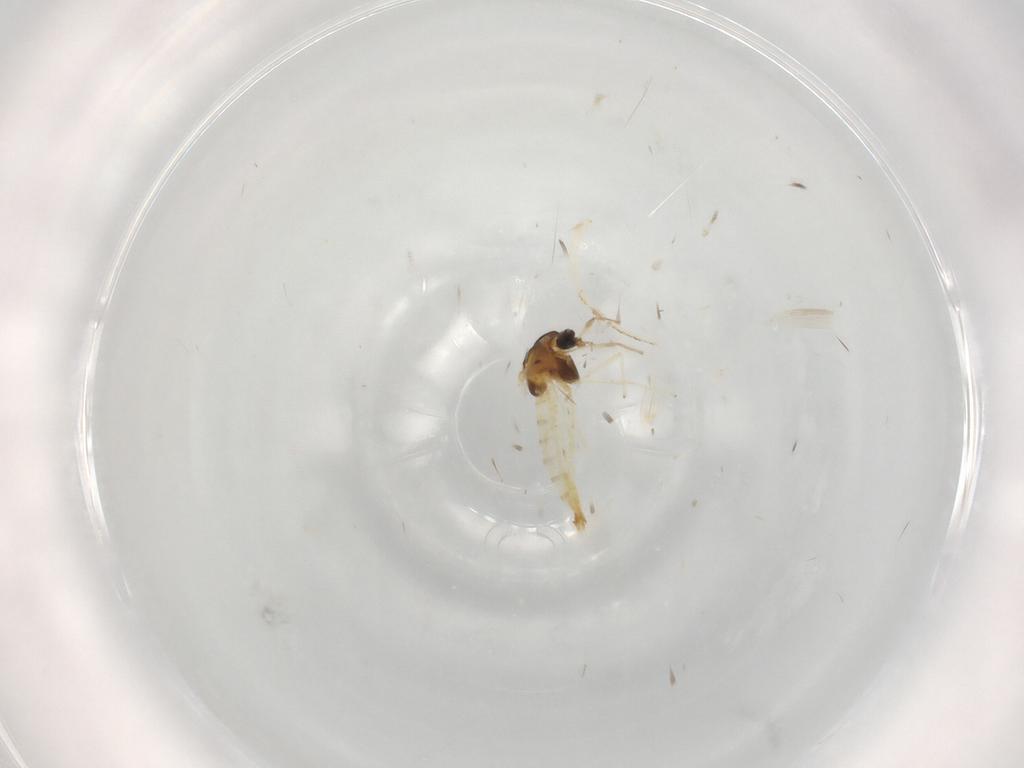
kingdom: Animalia
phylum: Arthropoda
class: Insecta
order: Diptera
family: Chironomidae
